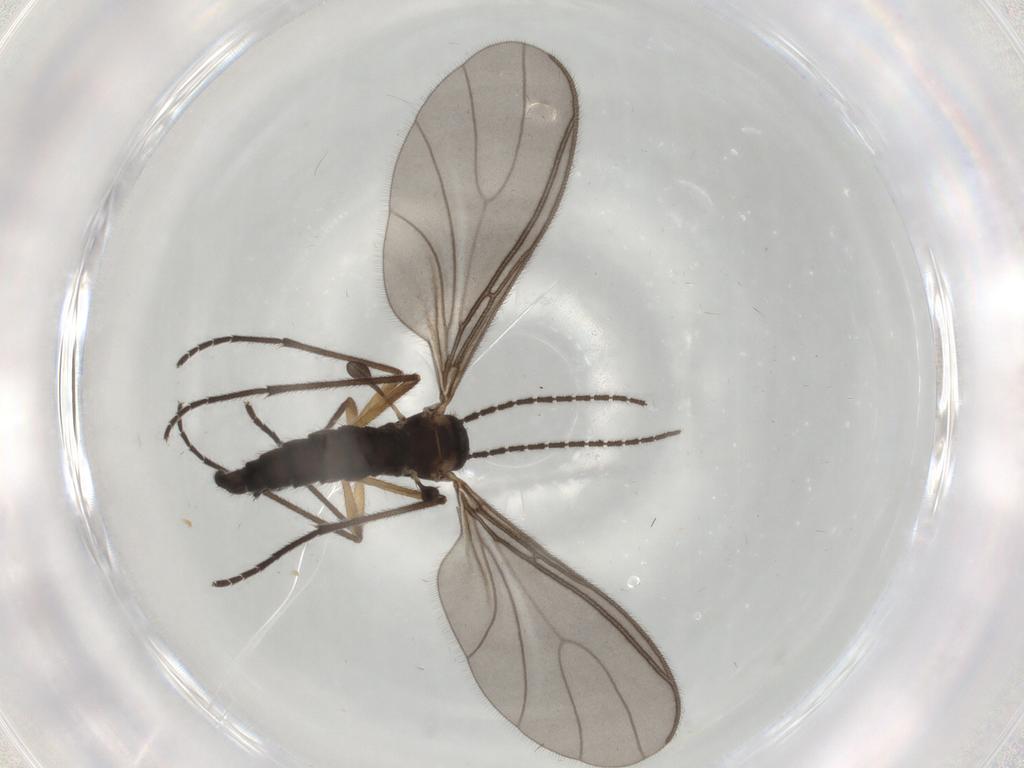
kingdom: Animalia
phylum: Arthropoda
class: Insecta
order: Diptera
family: Sciaridae
